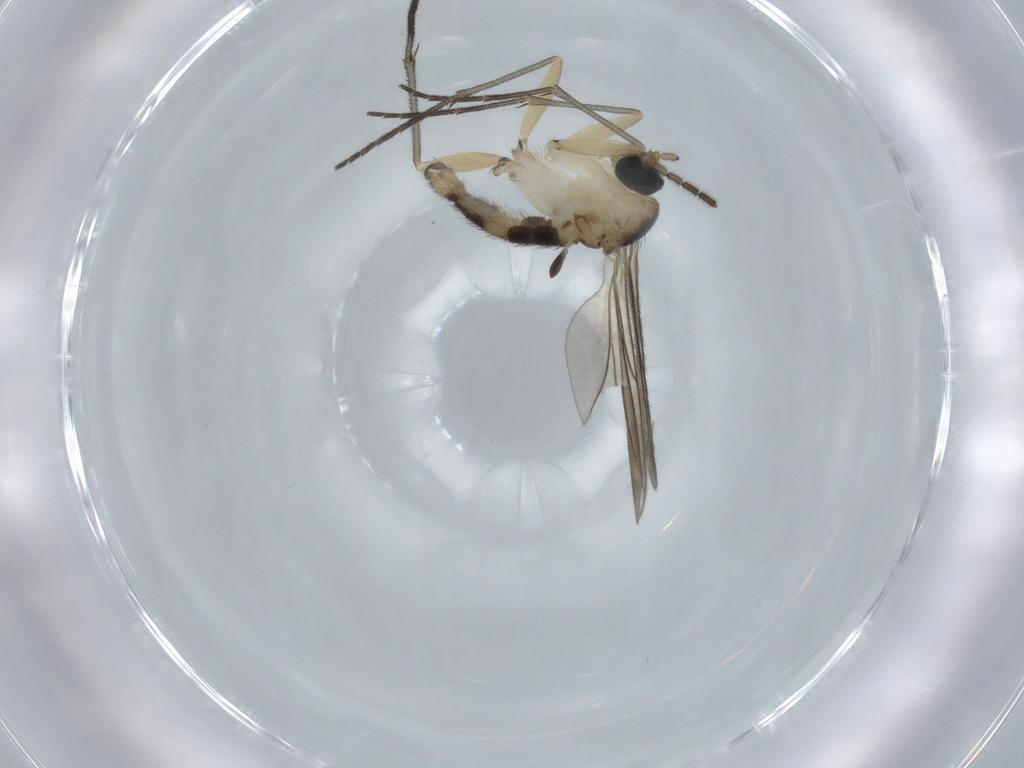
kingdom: Animalia
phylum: Arthropoda
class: Insecta
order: Diptera
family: Sciaridae
